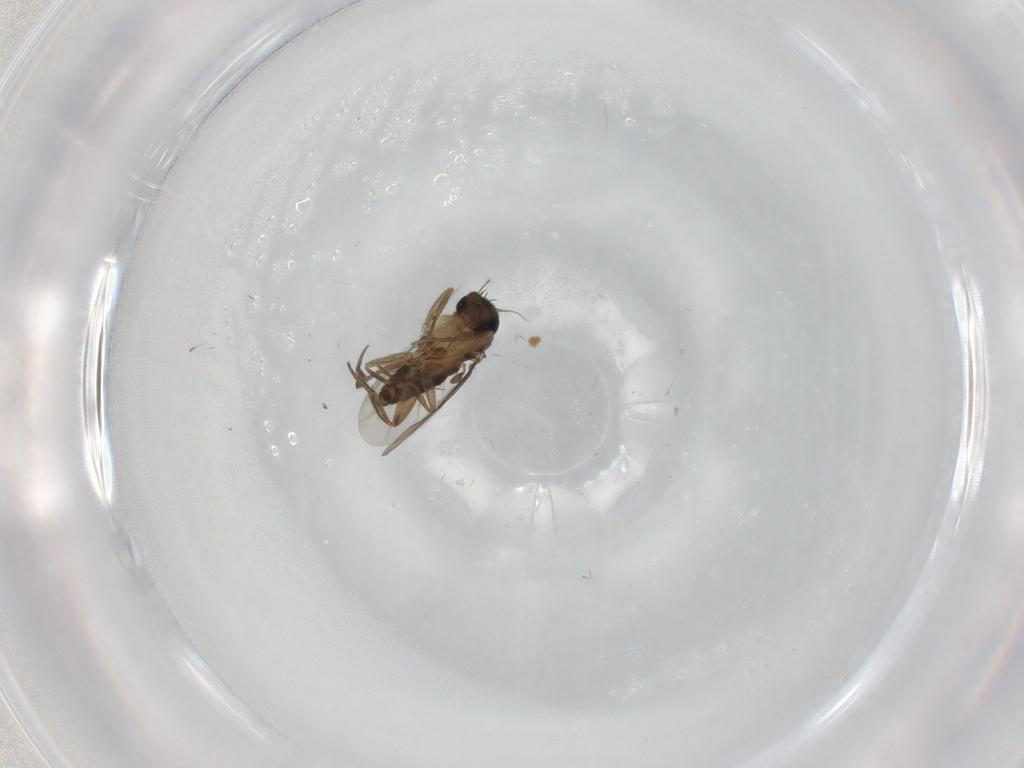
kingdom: Animalia
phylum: Arthropoda
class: Insecta
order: Diptera
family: Phoridae
